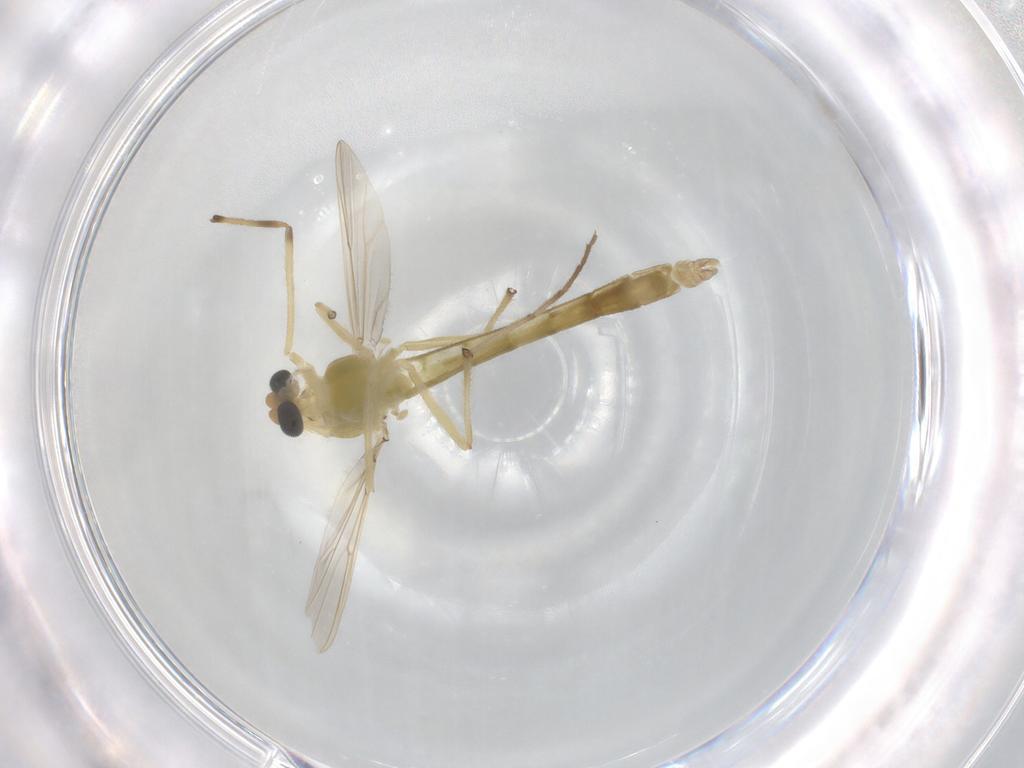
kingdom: Animalia
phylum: Arthropoda
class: Insecta
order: Diptera
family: Chironomidae
